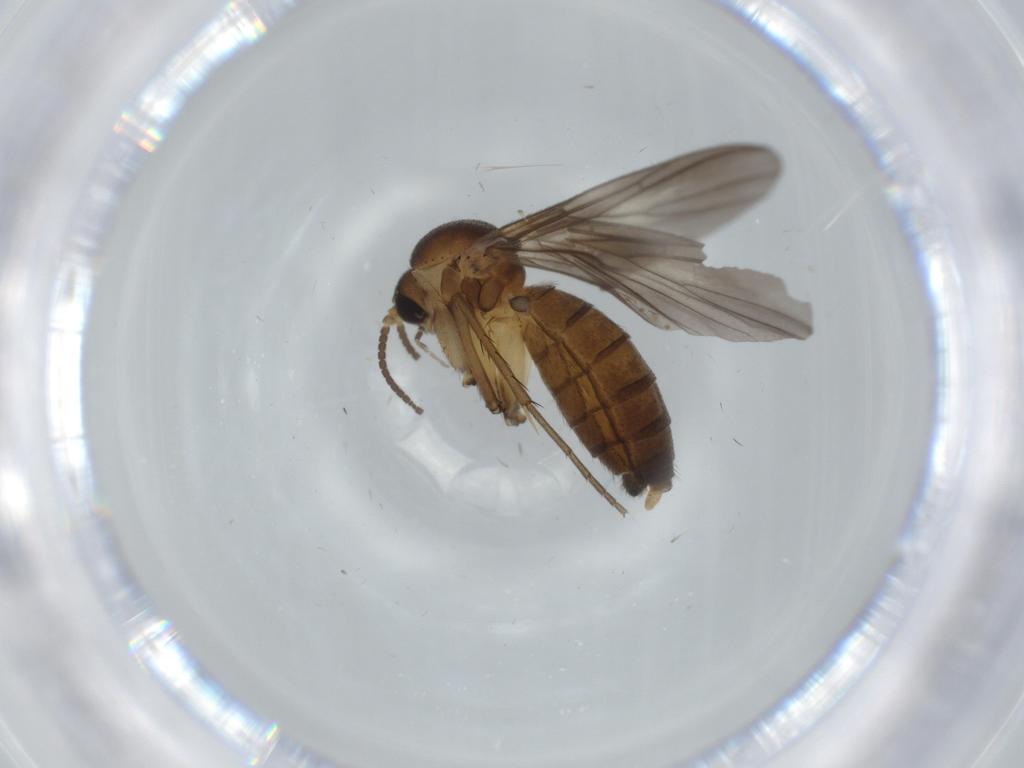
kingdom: Animalia
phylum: Arthropoda
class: Insecta
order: Diptera
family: Mycetophilidae
